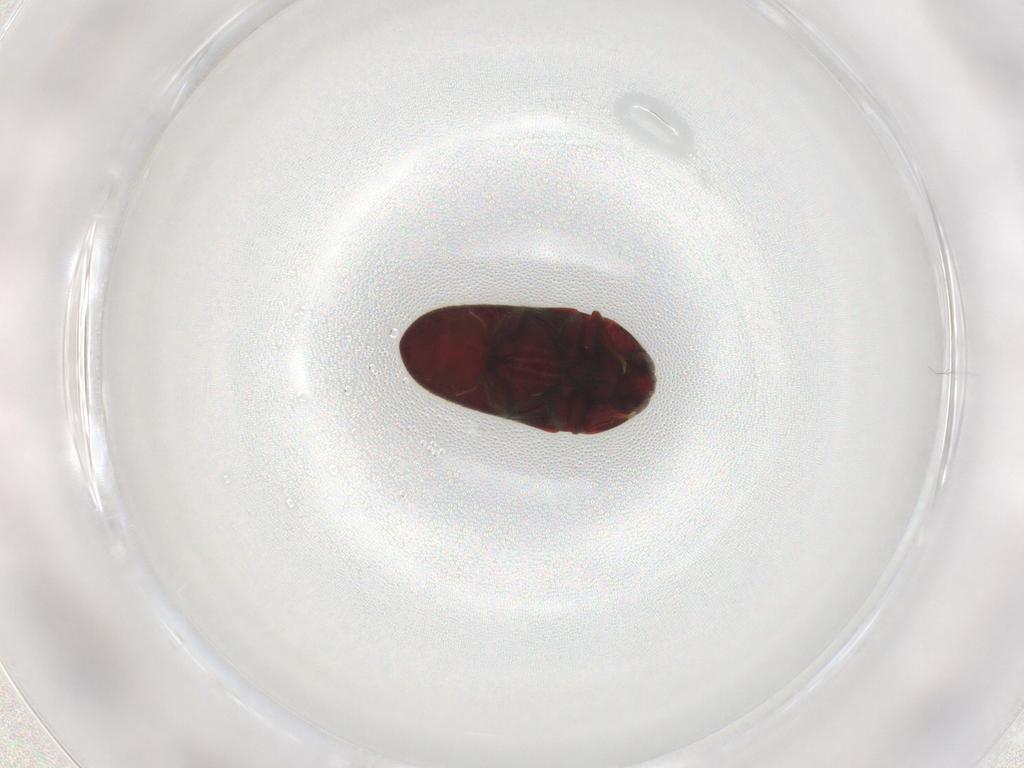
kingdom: Animalia
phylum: Arthropoda
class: Insecta
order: Coleoptera
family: Throscidae
